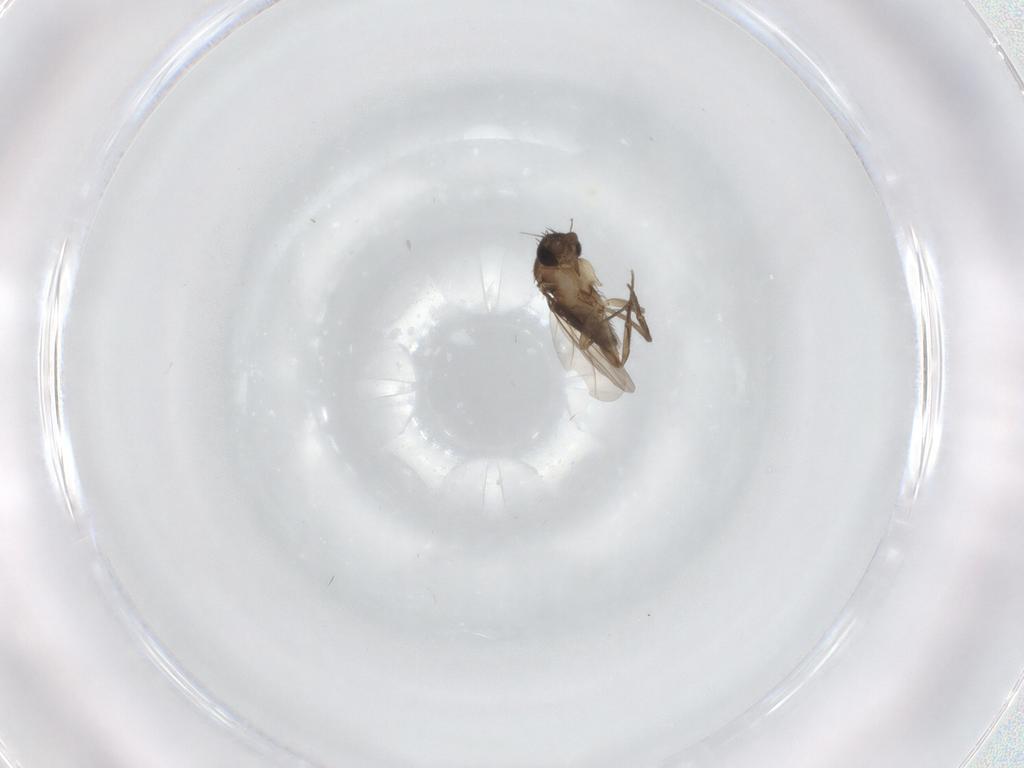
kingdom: Animalia
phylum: Arthropoda
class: Insecta
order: Diptera
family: Phoridae
